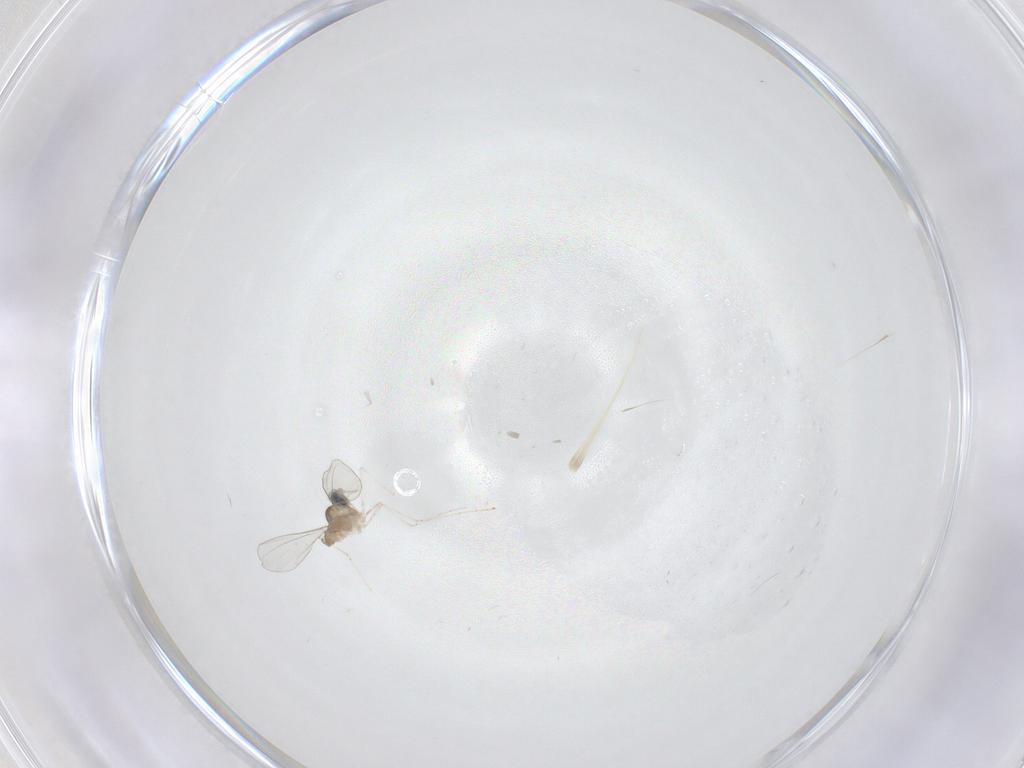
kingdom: Animalia
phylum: Arthropoda
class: Insecta
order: Diptera
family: Cecidomyiidae
